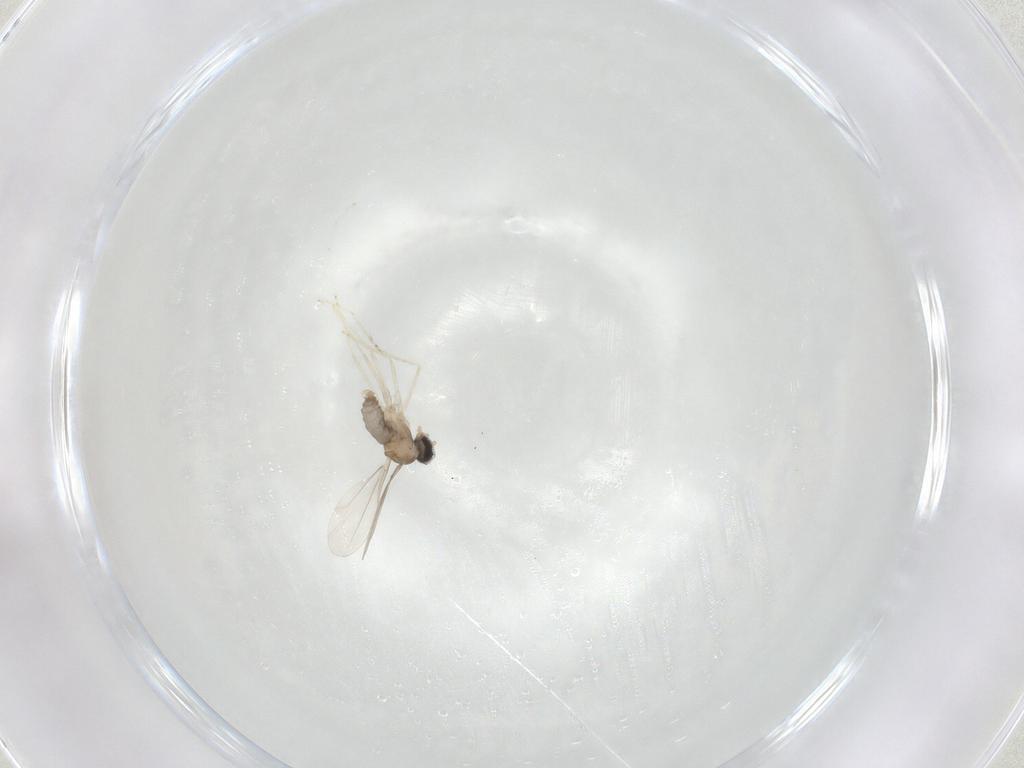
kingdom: Animalia
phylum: Arthropoda
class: Insecta
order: Diptera
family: Cecidomyiidae
